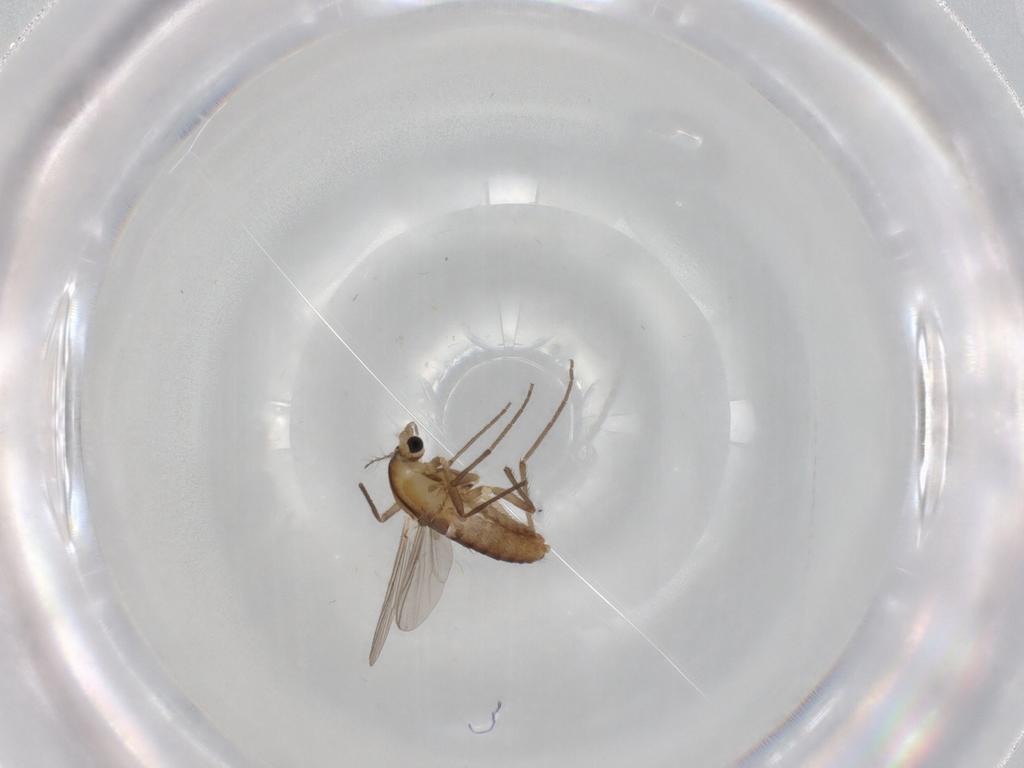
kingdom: Animalia
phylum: Arthropoda
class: Insecta
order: Diptera
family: Chironomidae
